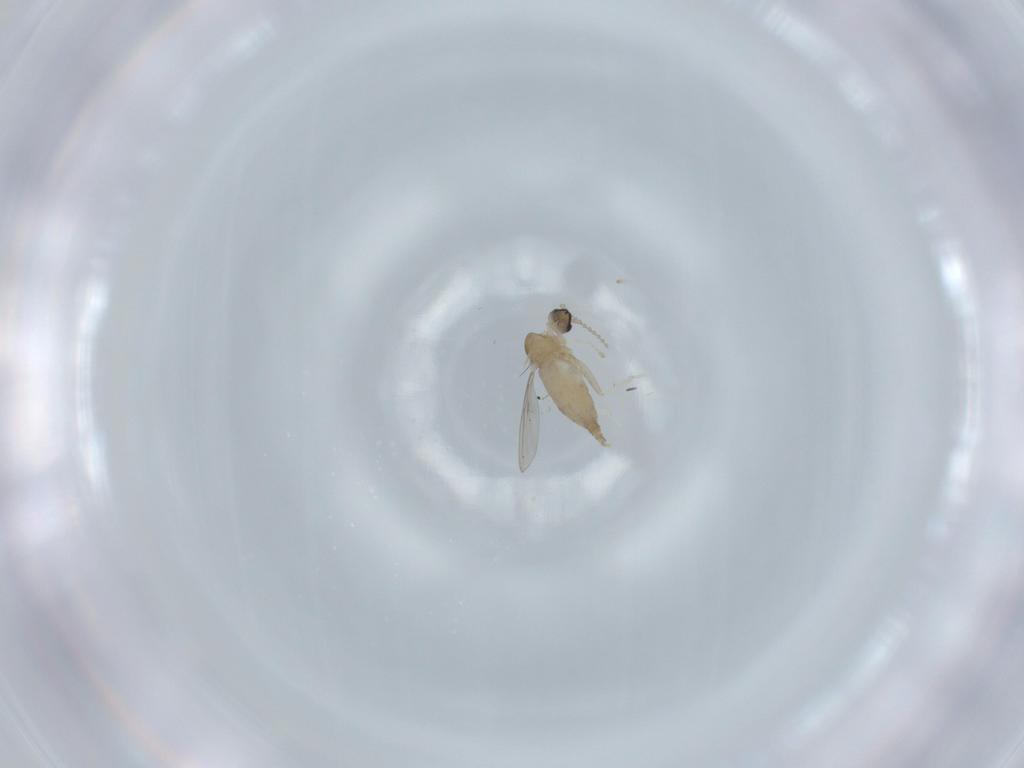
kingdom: Animalia
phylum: Arthropoda
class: Insecta
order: Diptera
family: Cecidomyiidae
